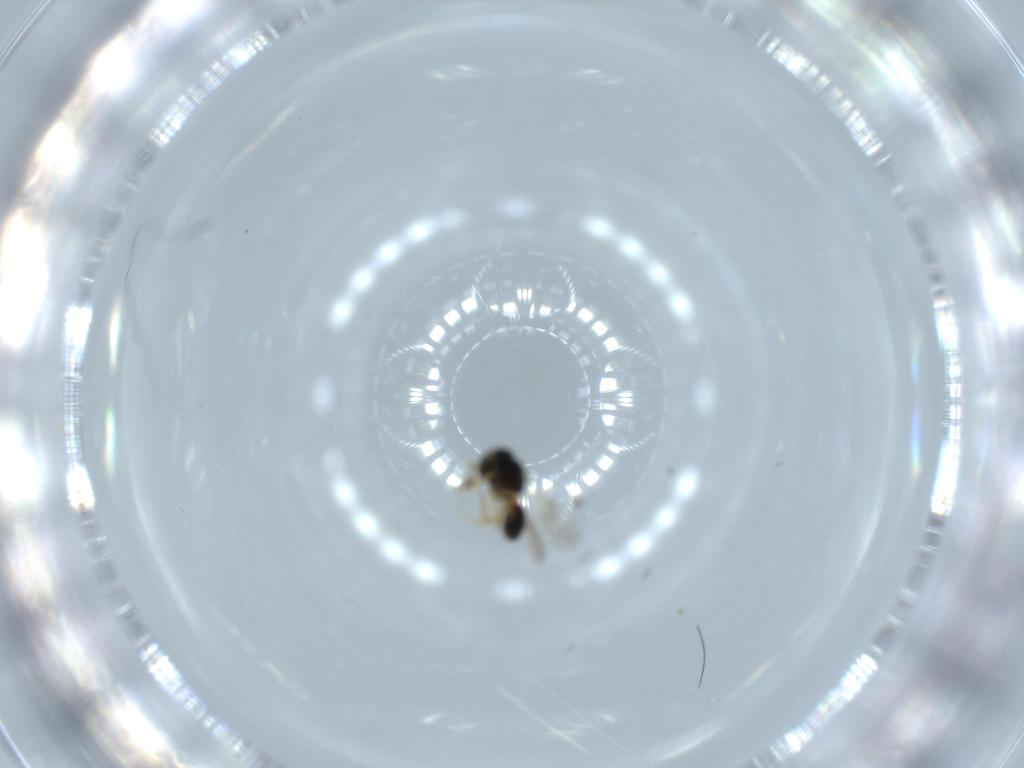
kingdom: Animalia
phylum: Arthropoda
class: Insecta
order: Hymenoptera
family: Scelionidae
